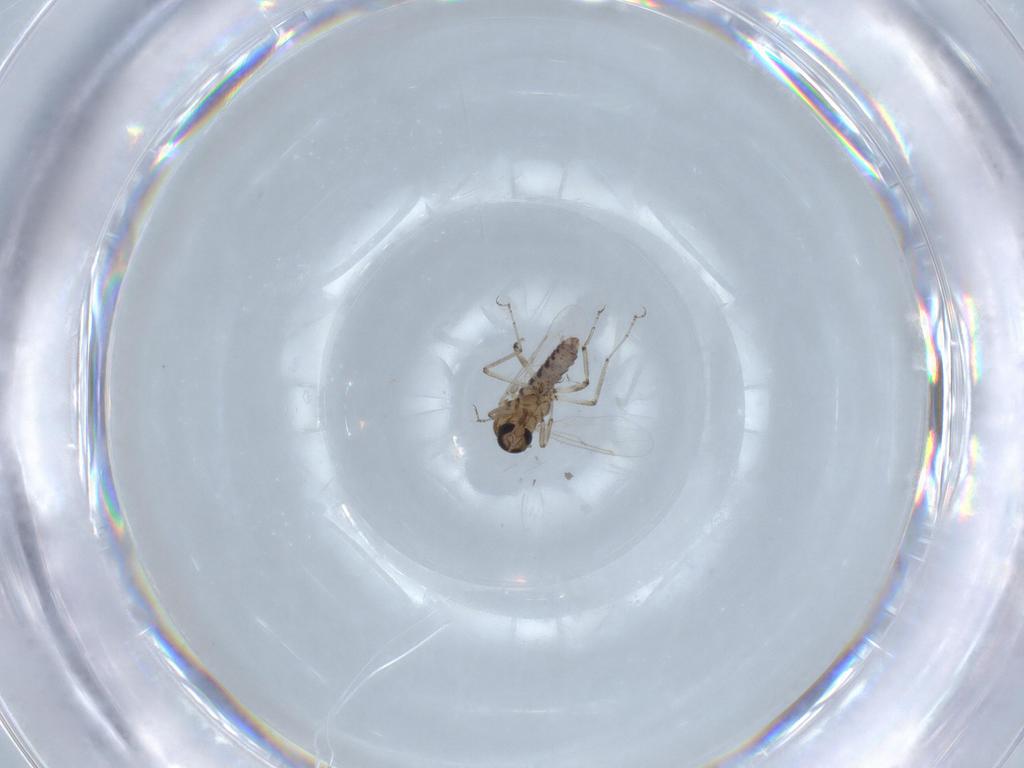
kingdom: Animalia
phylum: Arthropoda
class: Insecta
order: Diptera
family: Ceratopogonidae
